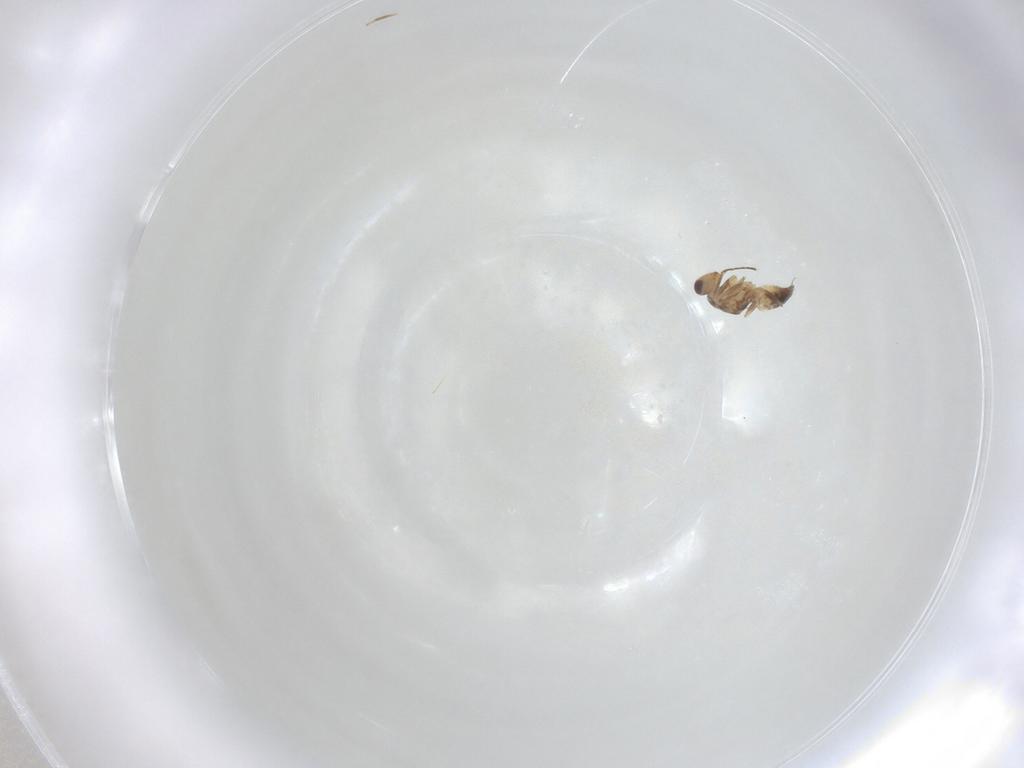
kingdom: Animalia
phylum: Arthropoda
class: Insecta
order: Hymenoptera
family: Mymaridae
